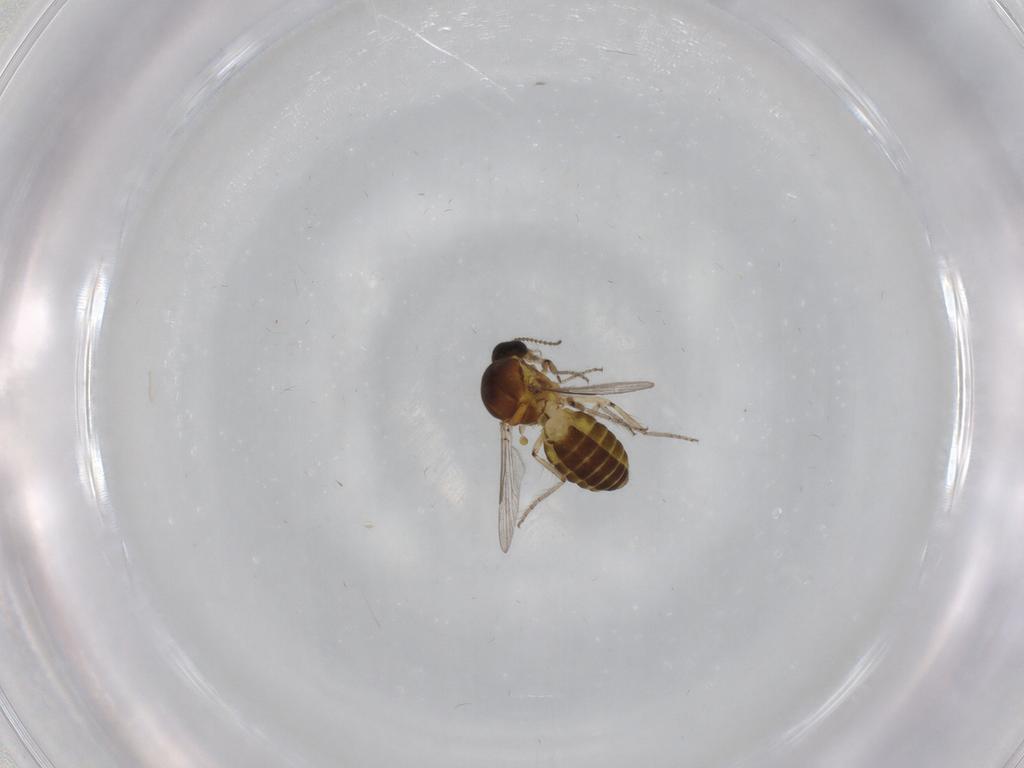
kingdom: Animalia
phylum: Arthropoda
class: Insecta
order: Diptera
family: Ceratopogonidae
